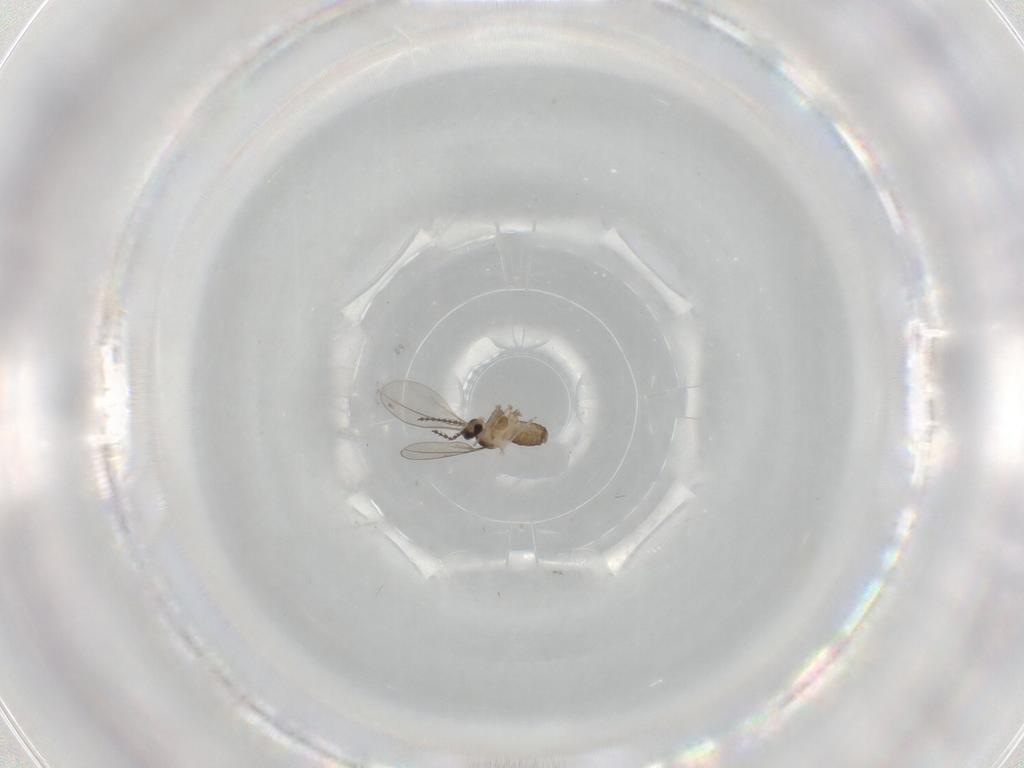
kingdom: Animalia
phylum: Arthropoda
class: Insecta
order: Diptera
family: Cecidomyiidae
